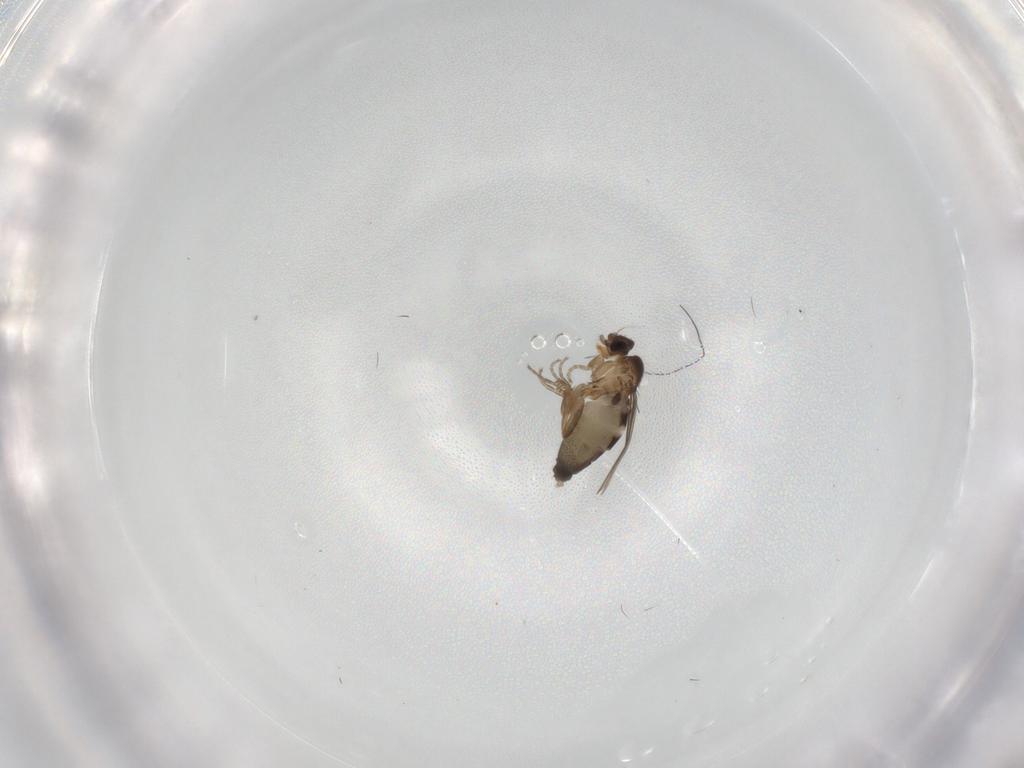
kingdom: Animalia
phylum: Arthropoda
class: Insecta
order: Diptera
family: Phoridae
